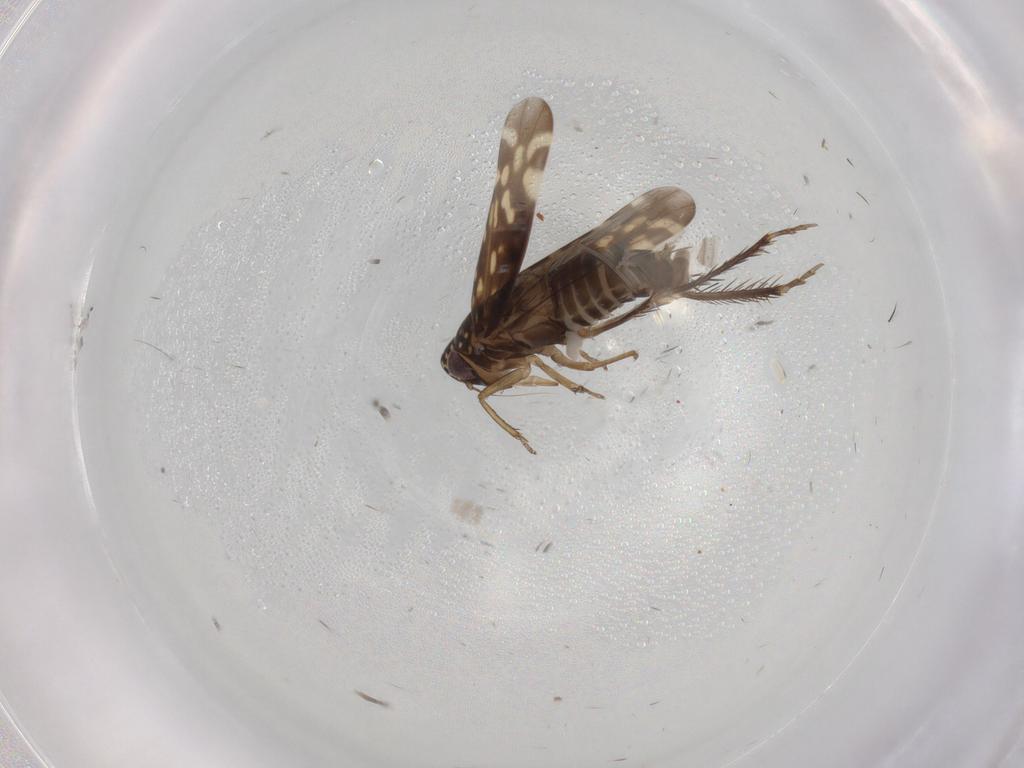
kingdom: Animalia
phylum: Arthropoda
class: Insecta
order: Hemiptera
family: Cicadellidae
